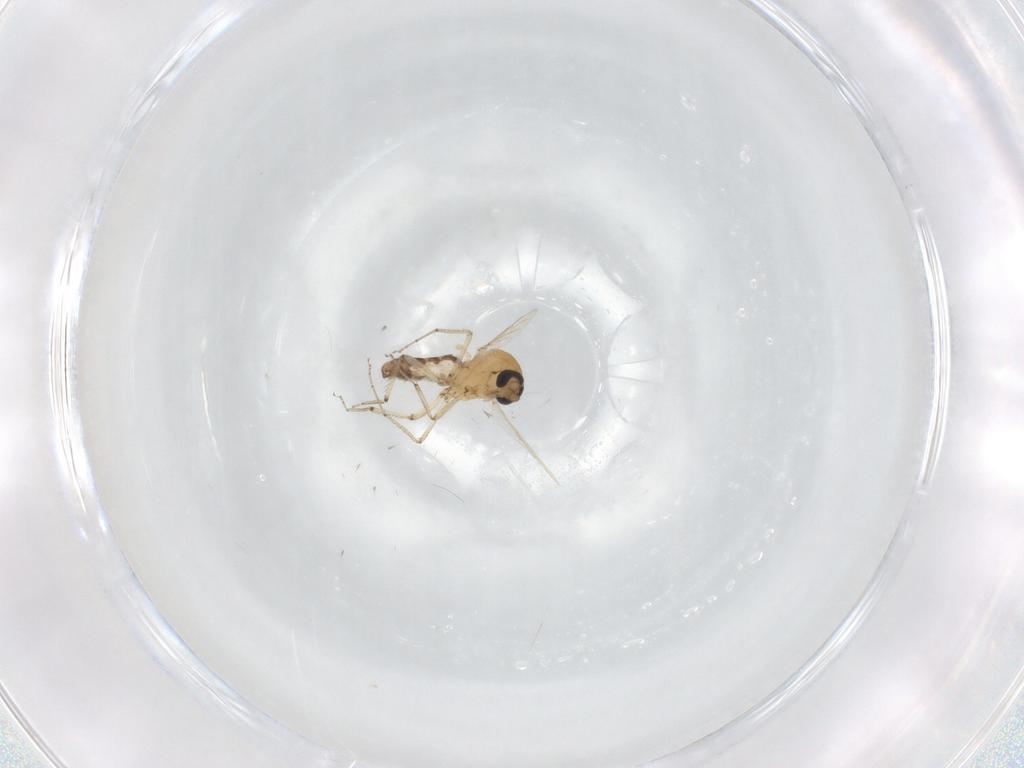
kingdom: Animalia
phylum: Arthropoda
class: Insecta
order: Diptera
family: Ceratopogonidae
